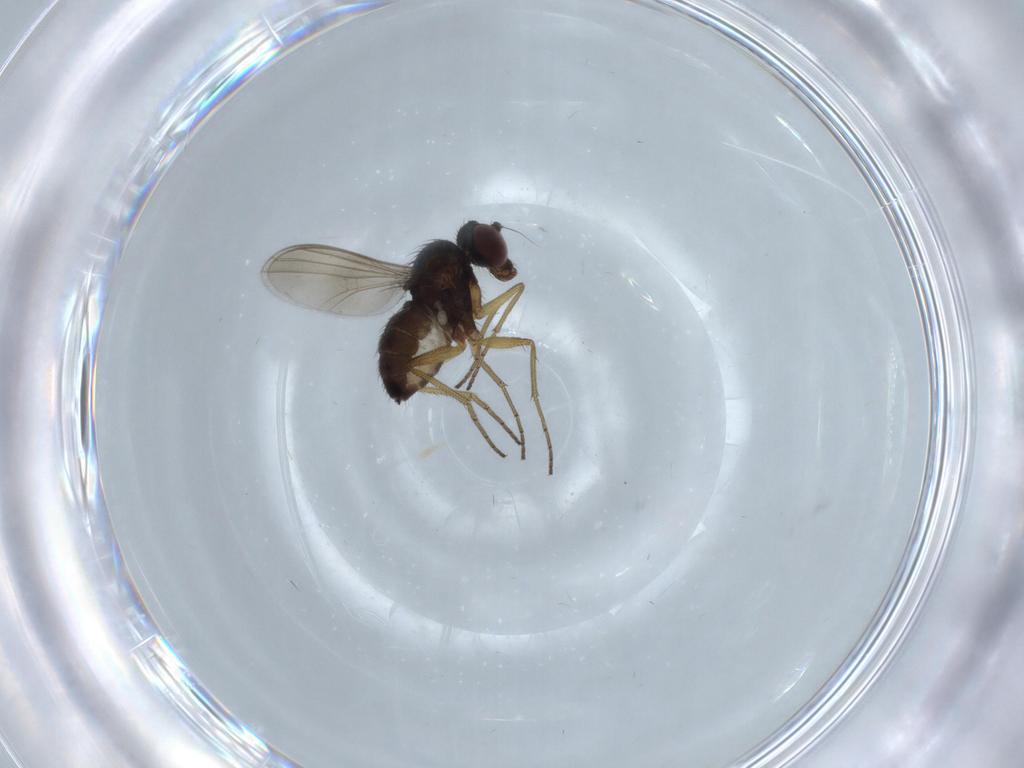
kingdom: Animalia
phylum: Arthropoda
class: Insecta
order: Diptera
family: Dolichopodidae
